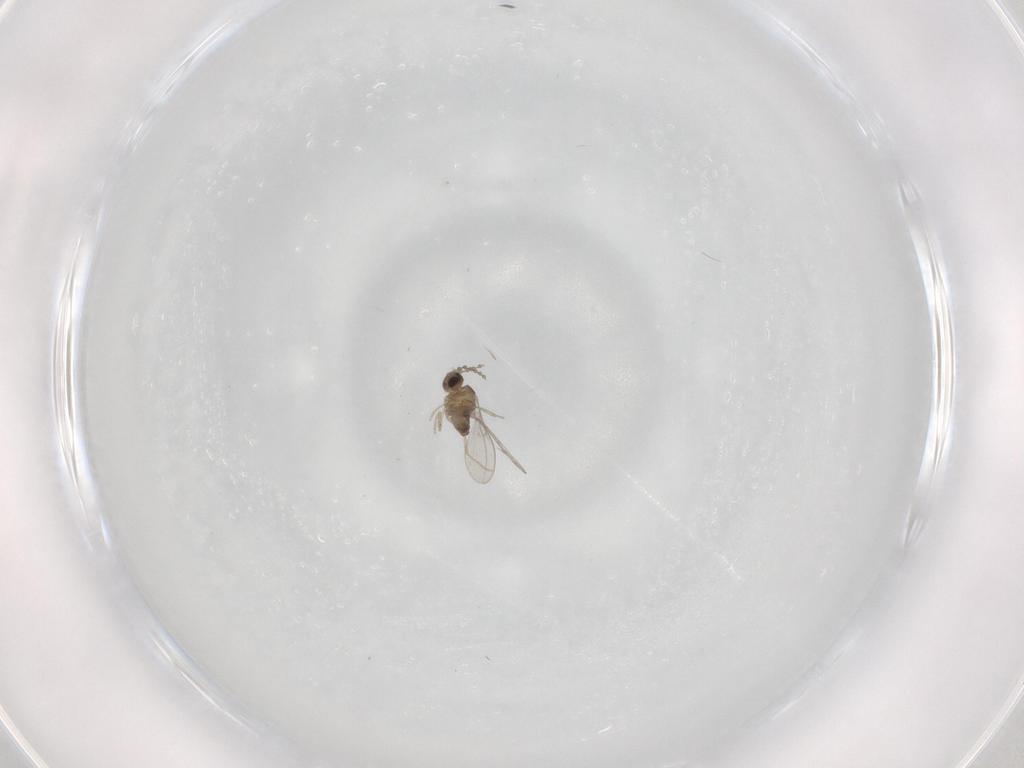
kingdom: Animalia
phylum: Arthropoda
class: Insecta
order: Diptera
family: Cecidomyiidae
